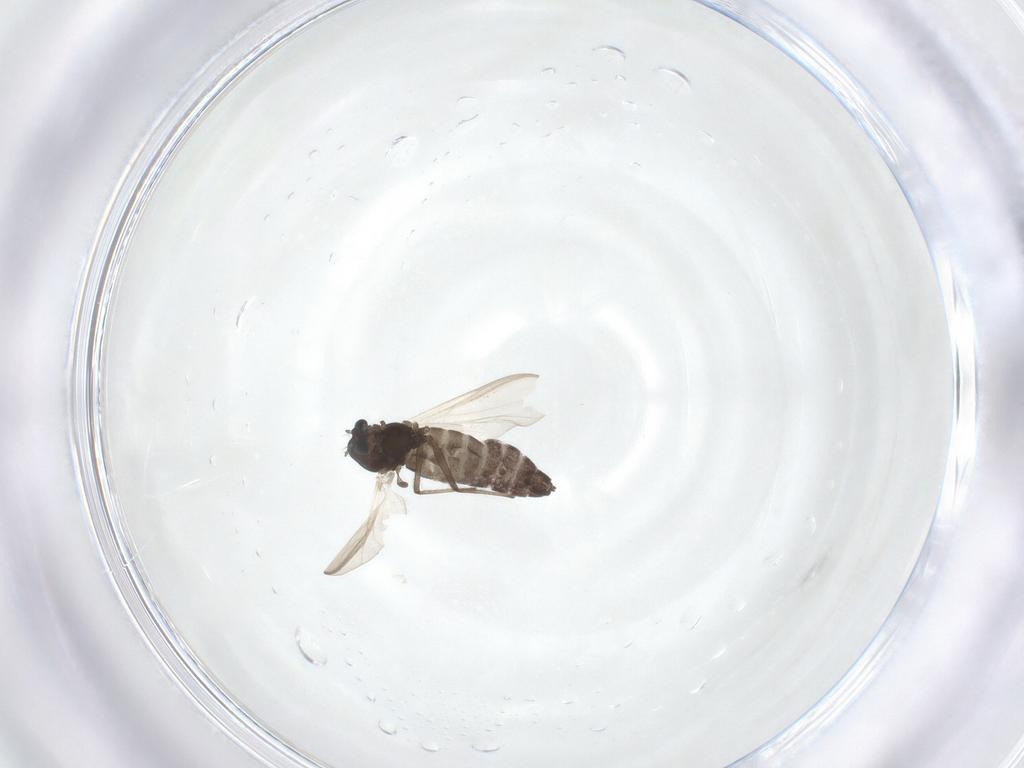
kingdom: Animalia
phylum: Arthropoda
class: Insecta
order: Diptera
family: Chironomidae
